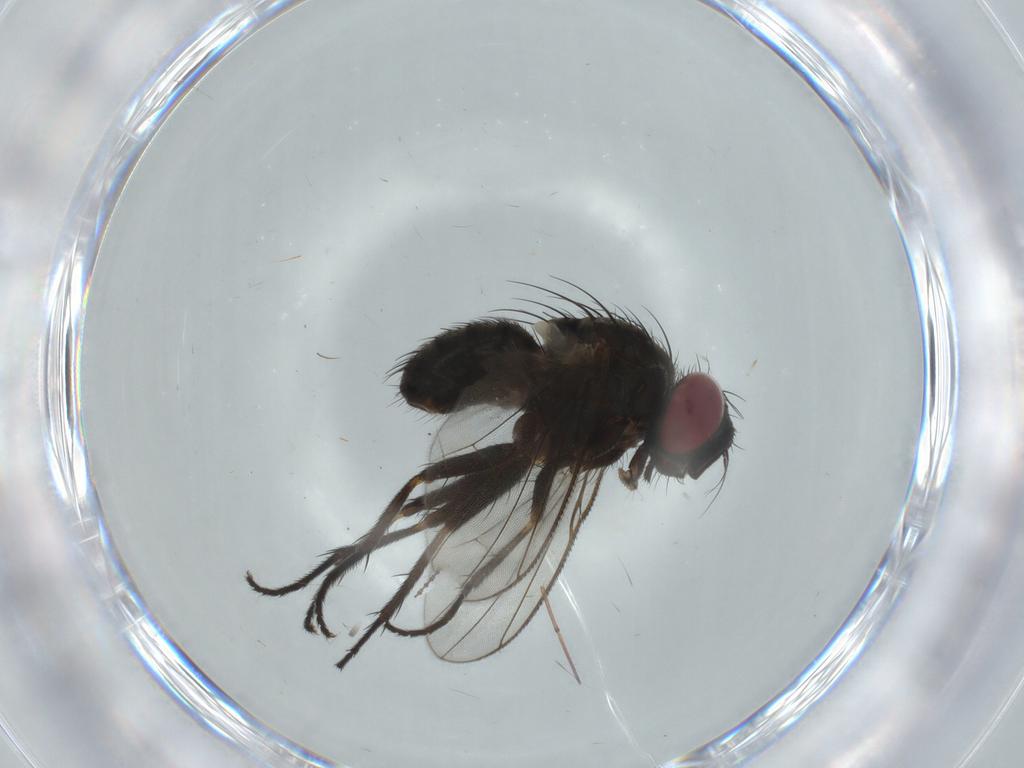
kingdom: Animalia
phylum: Arthropoda
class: Insecta
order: Diptera
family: Muscidae
